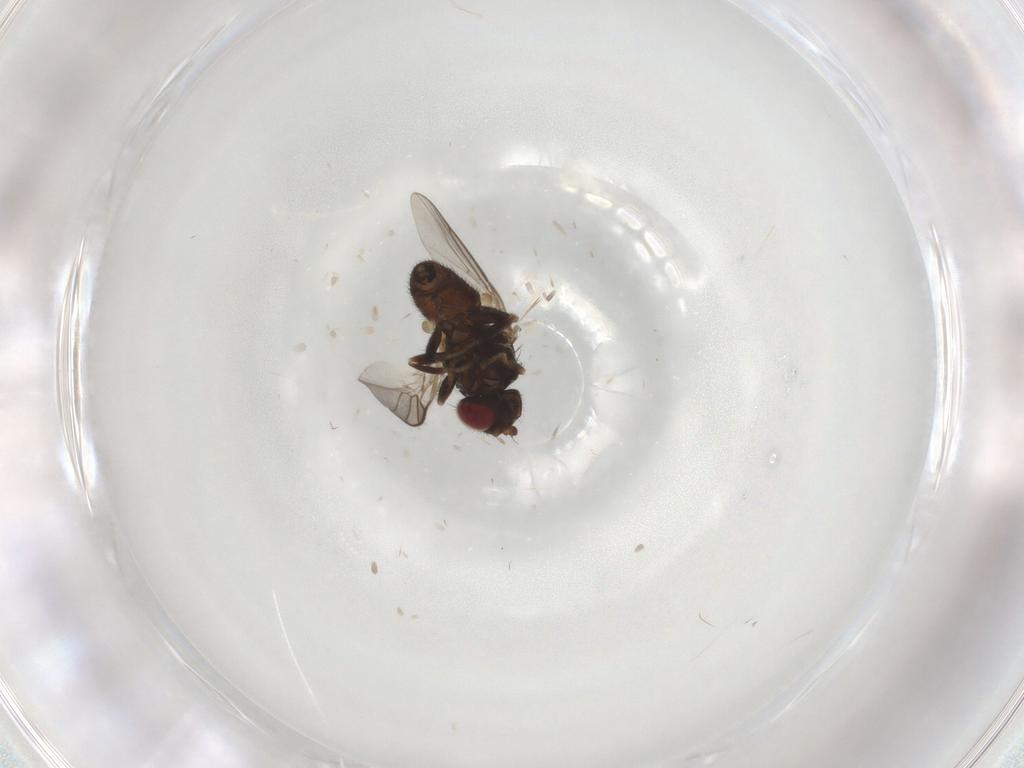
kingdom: Animalia
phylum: Arthropoda
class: Insecta
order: Diptera
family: Chloropidae
